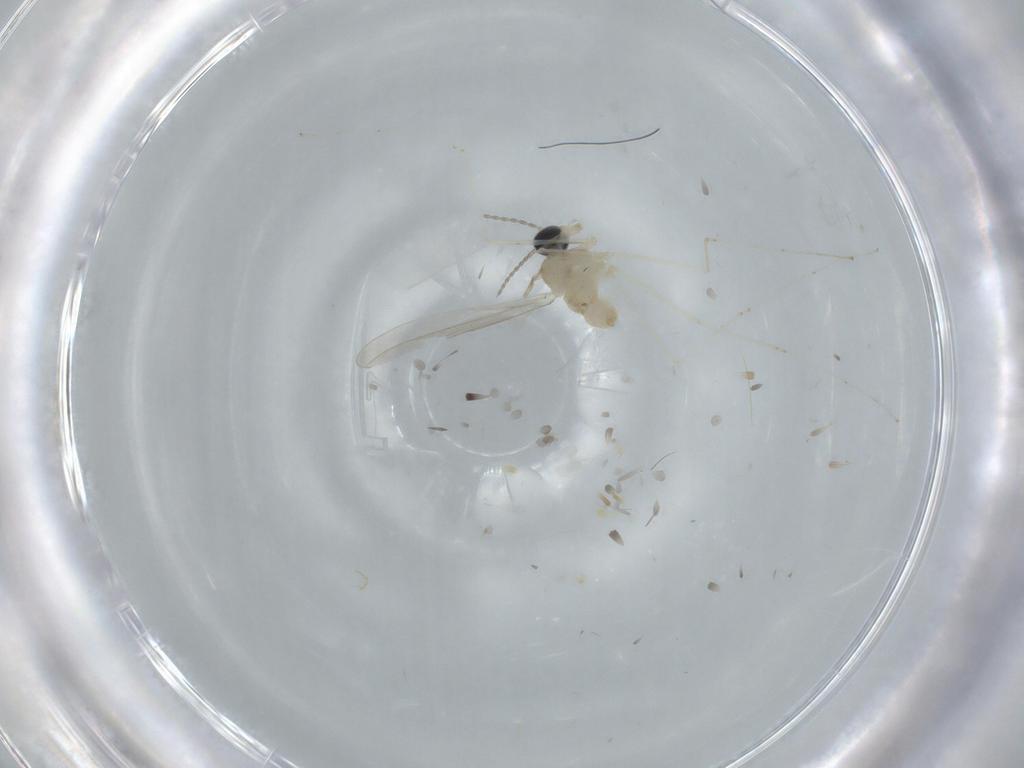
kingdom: Animalia
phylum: Arthropoda
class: Insecta
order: Diptera
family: Cecidomyiidae
